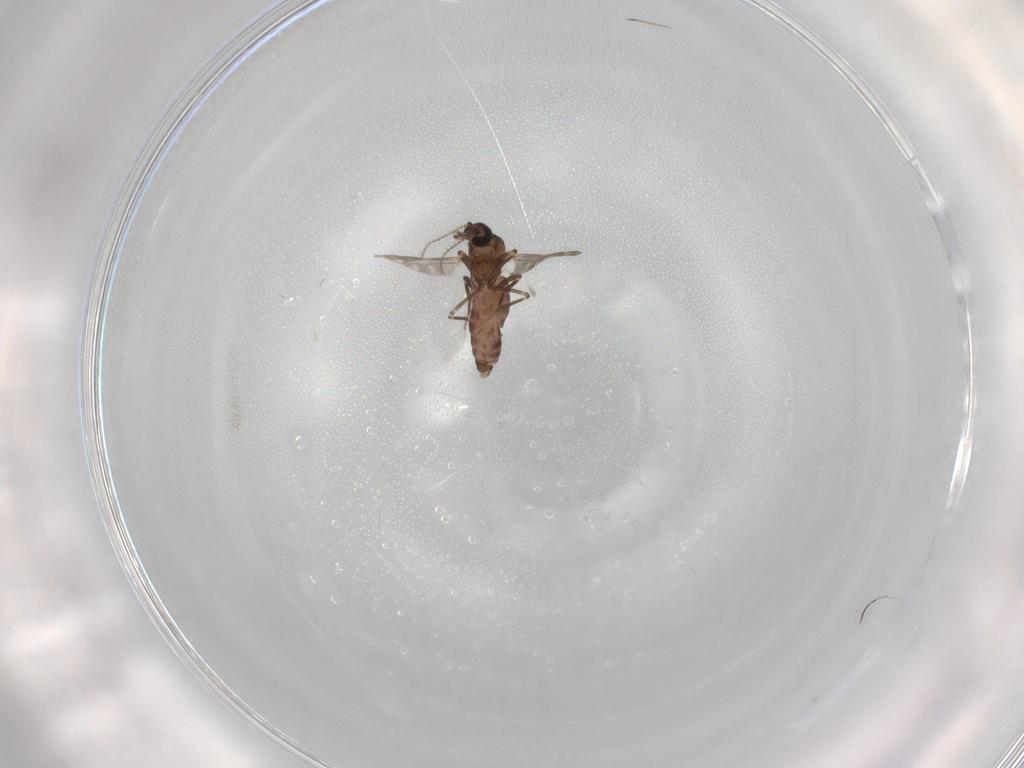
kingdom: Animalia
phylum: Arthropoda
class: Insecta
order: Diptera
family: Ceratopogonidae
